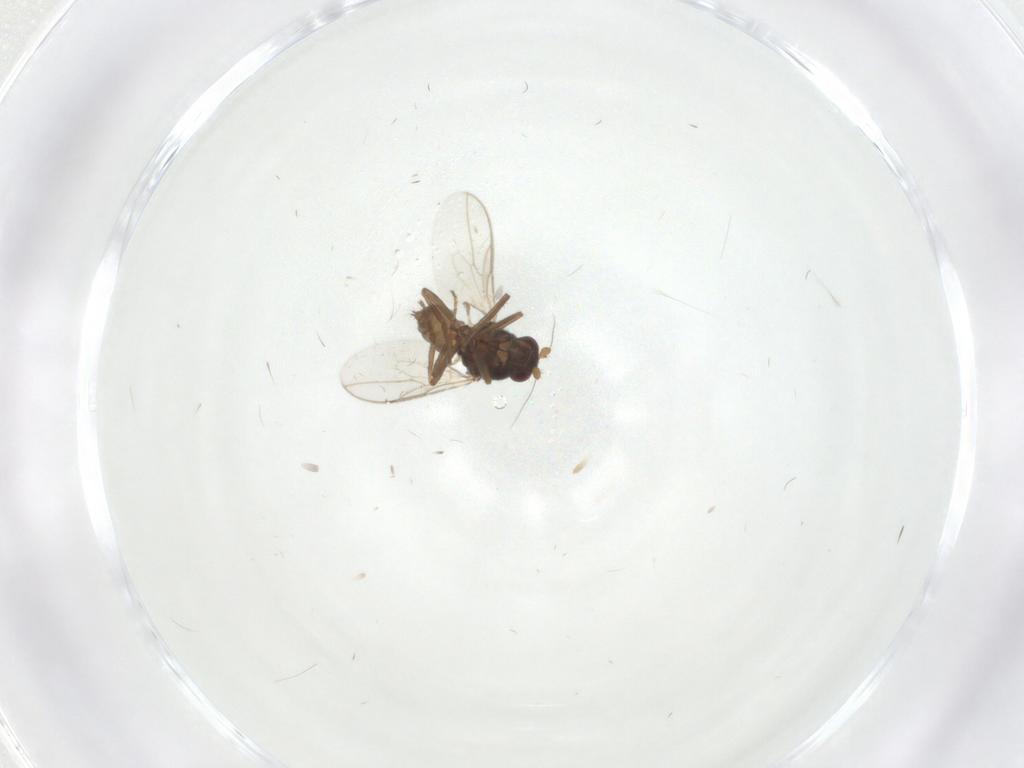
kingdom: Animalia
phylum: Arthropoda
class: Insecta
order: Diptera
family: Sphaeroceridae
